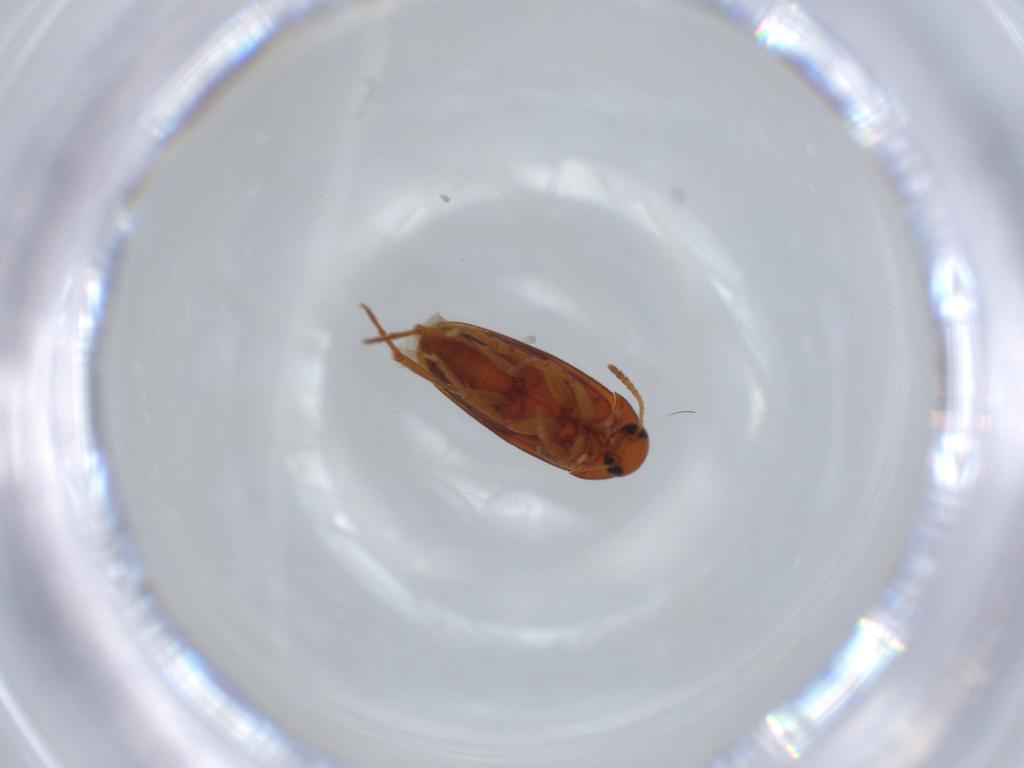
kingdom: Animalia
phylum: Arthropoda
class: Insecta
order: Coleoptera
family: Scraptiidae
